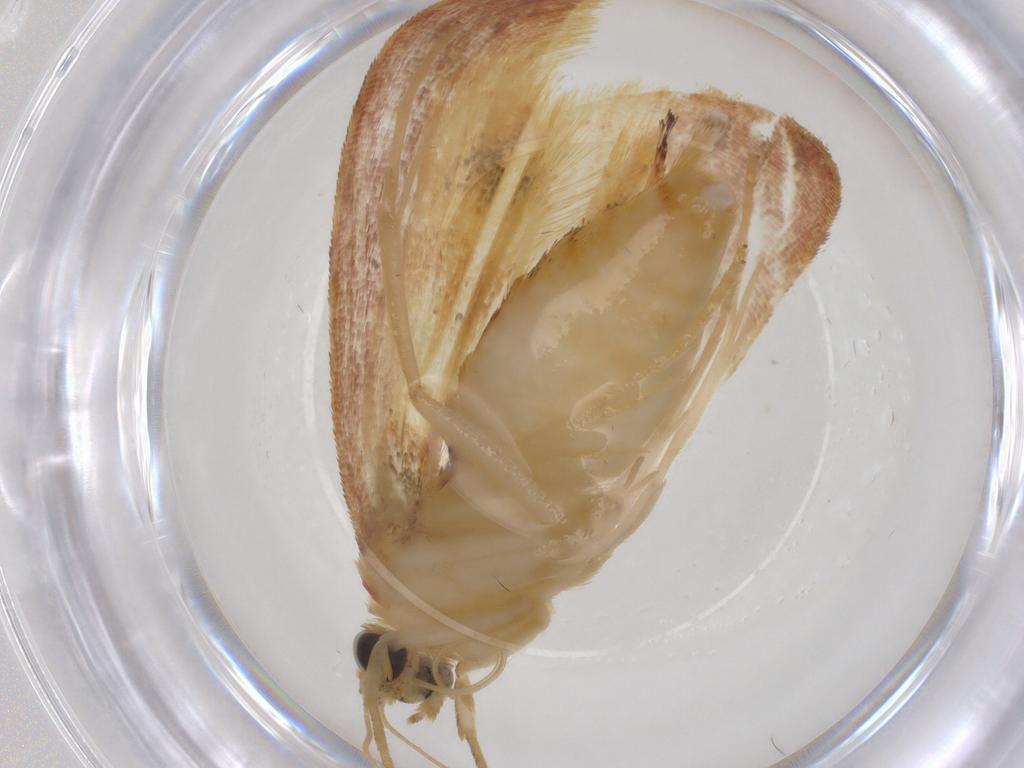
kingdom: Animalia
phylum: Arthropoda
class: Insecta
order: Lepidoptera
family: Erebidae
